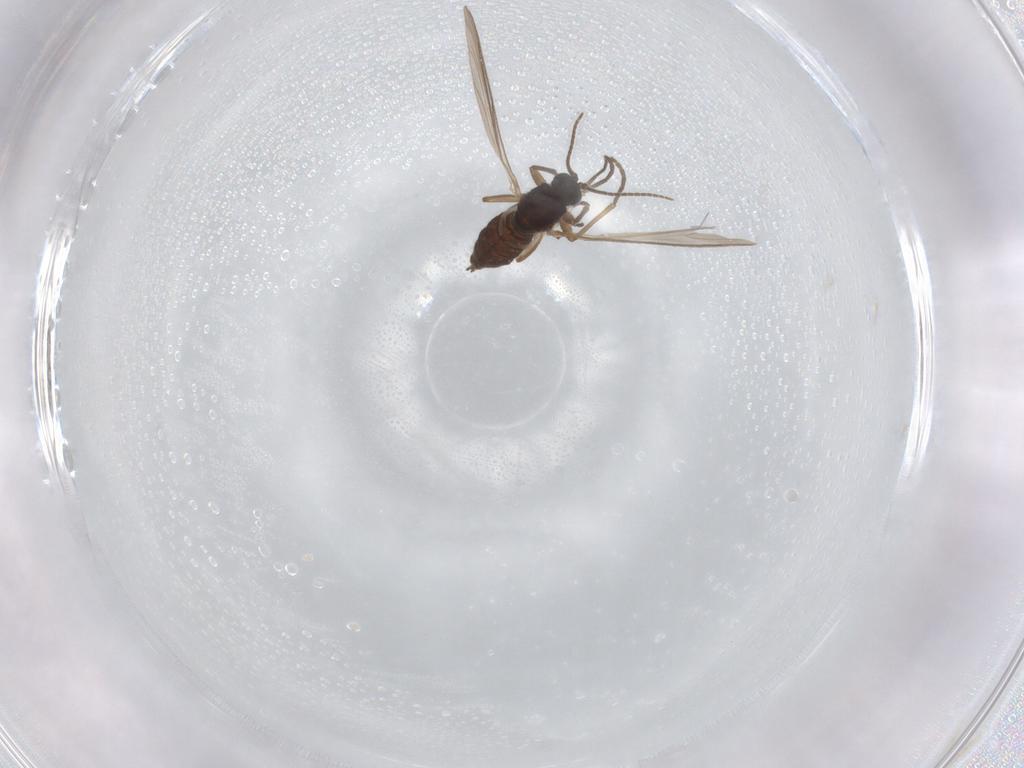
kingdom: Animalia
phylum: Arthropoda
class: Insecta
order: Diptera
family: Sciaridae
